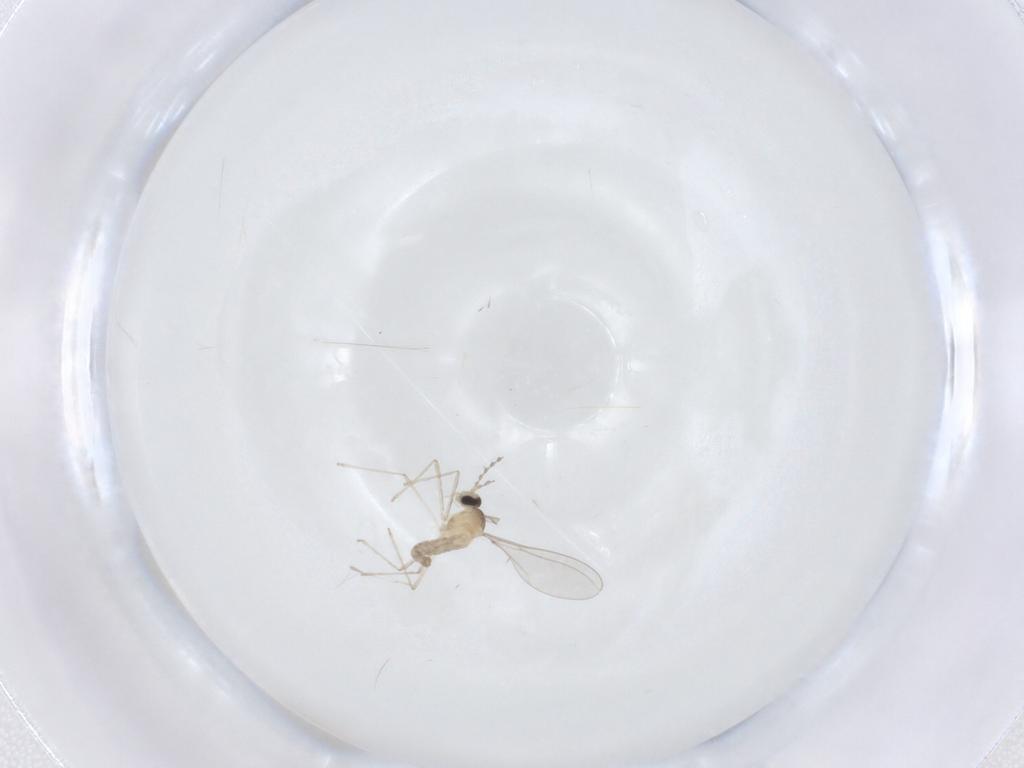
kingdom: Animalia
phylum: Arthropoda
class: Insecta
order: Diptera
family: Cecidomyiidae
